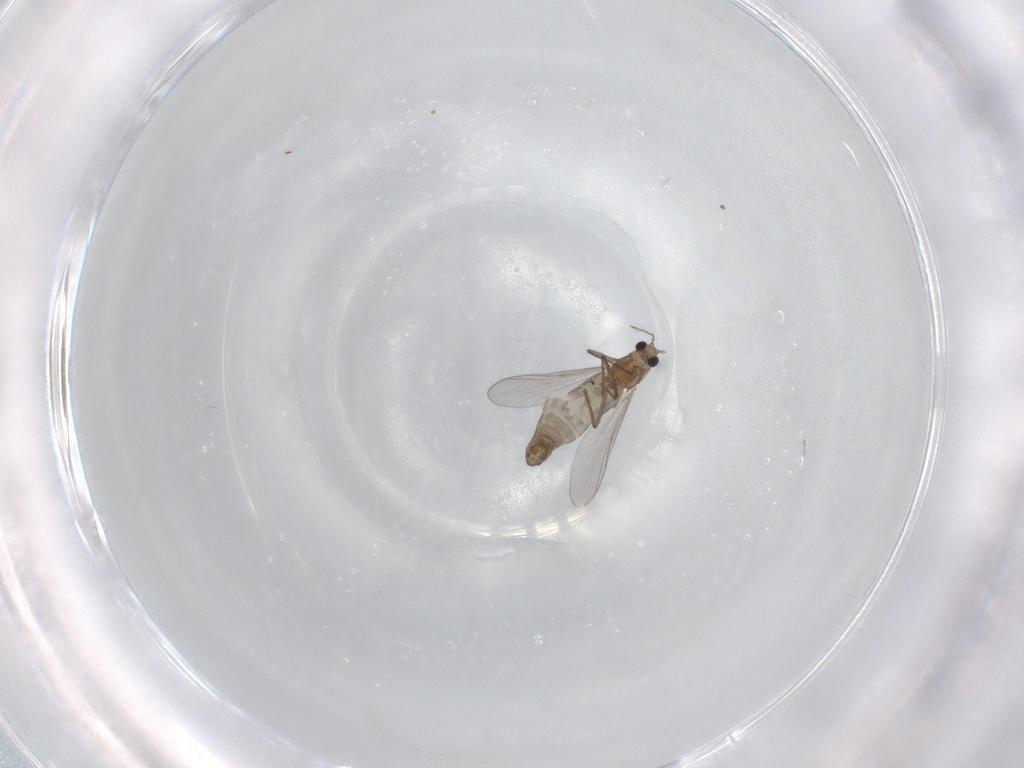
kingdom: Animalia
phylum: Arthropoda
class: Insecta
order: Diptera
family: Chironomidae
